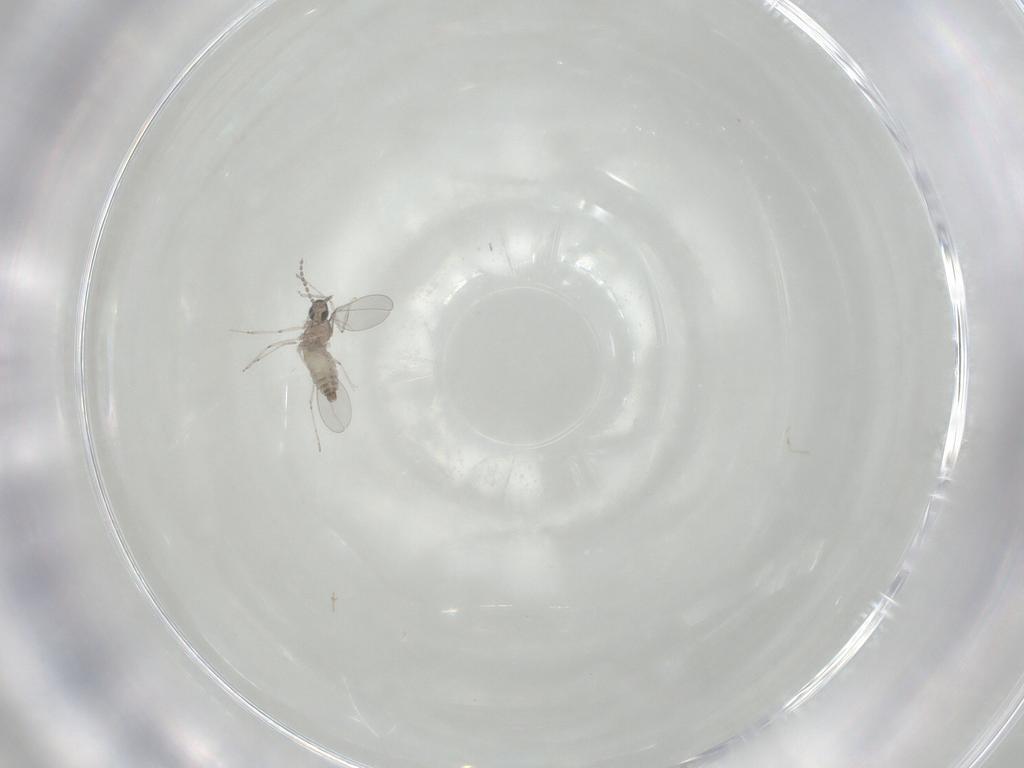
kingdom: Animalia
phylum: Arthropoda
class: Insecta
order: Diptera
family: Cecidomyiidae
